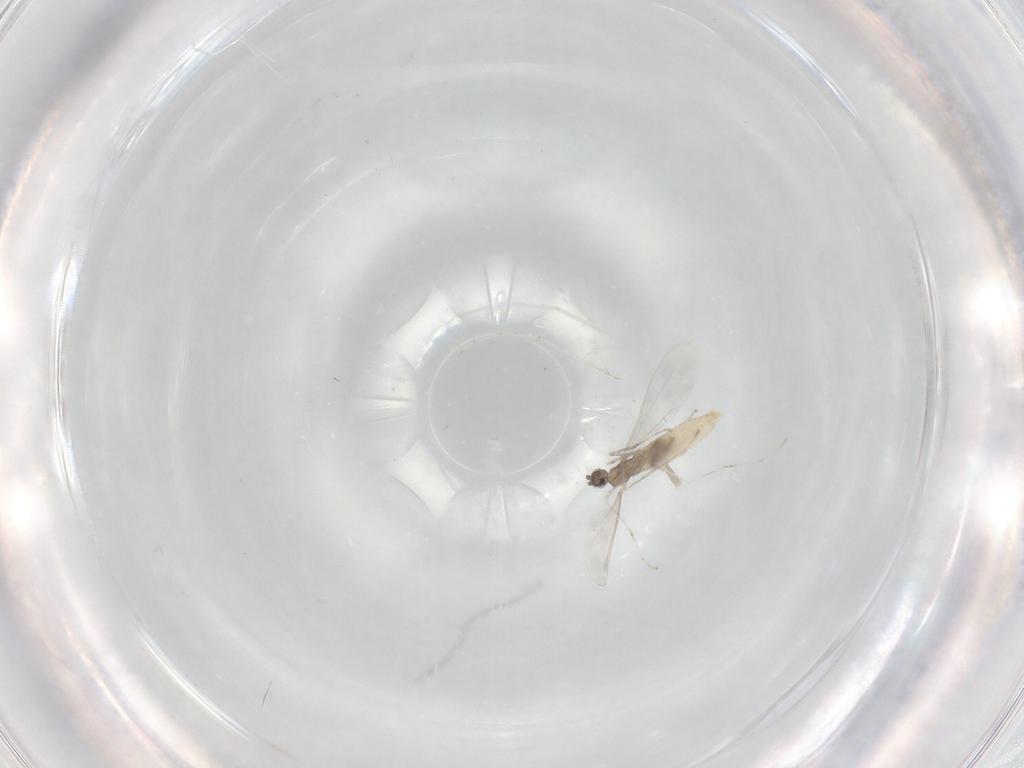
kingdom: Animalia
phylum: Arthropoda
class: Insecta
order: Diptera
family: Cecidomyiidae
